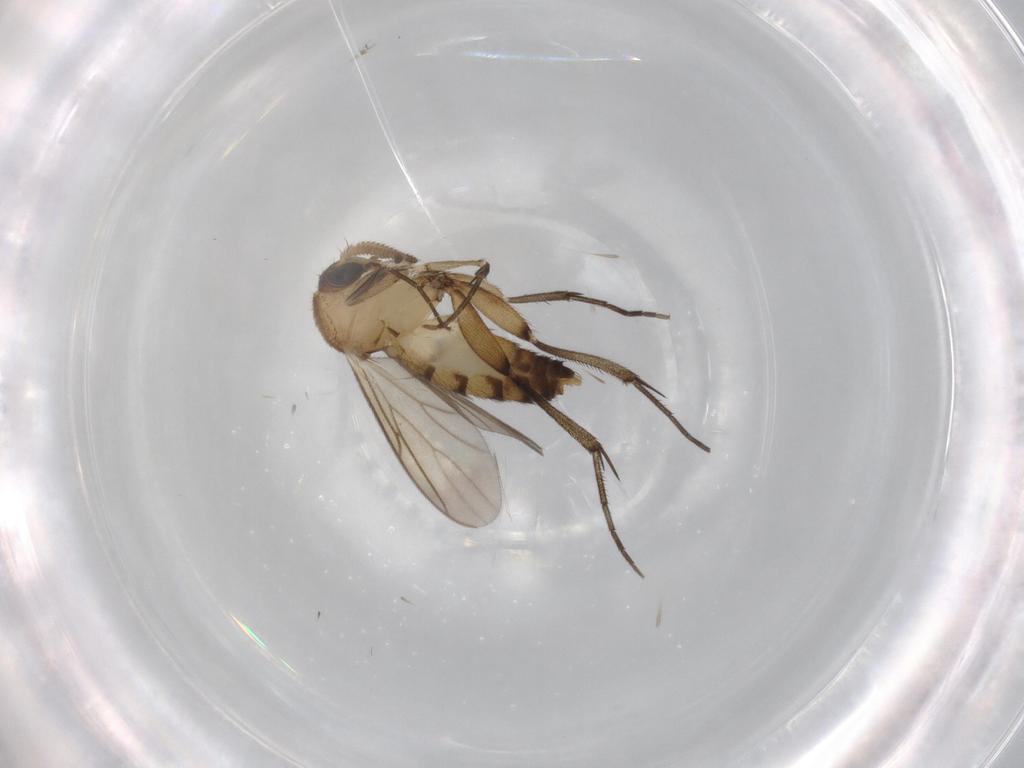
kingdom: Animalia
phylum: Arthropoda
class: Insecta
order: Diptera
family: Mycetophilidae
